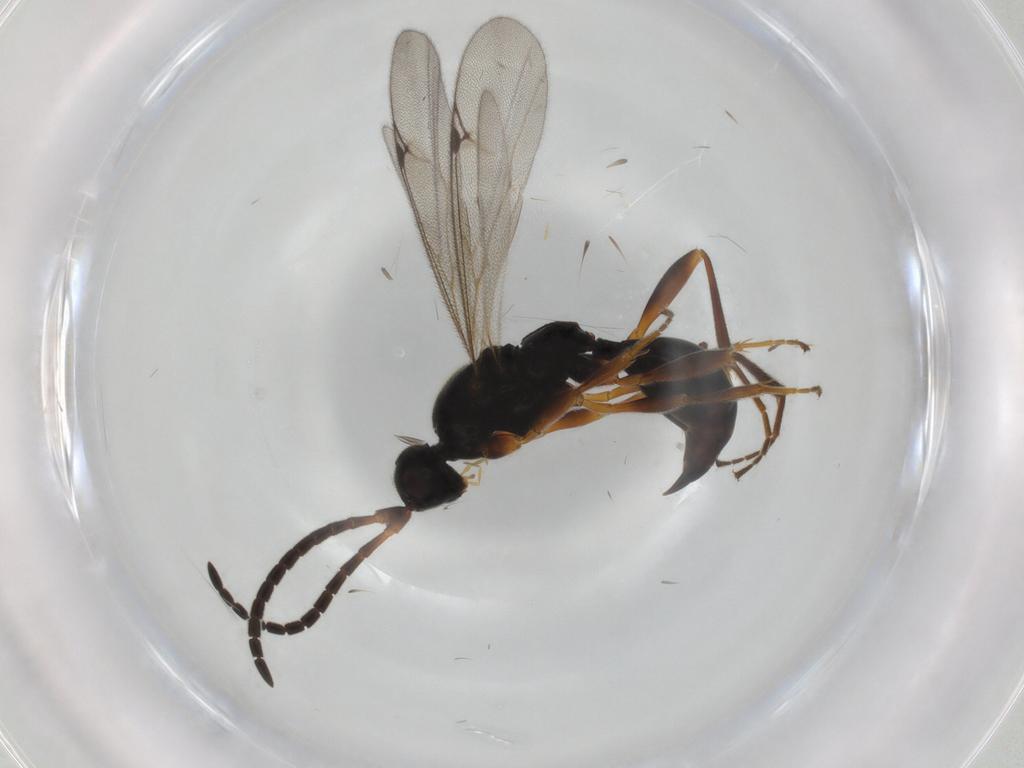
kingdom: Animalia
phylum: Arthropoda
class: Insecta
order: Hymenoptera
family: Proctotrupidae
